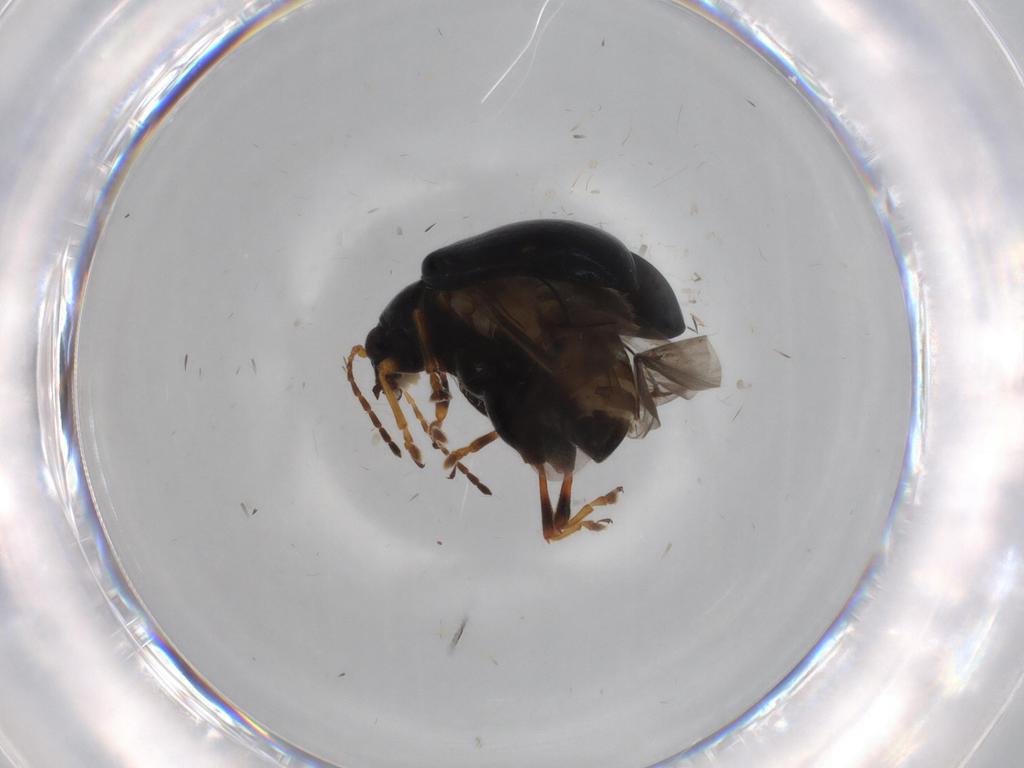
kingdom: Animalia
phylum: Arthropoda
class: Insecta
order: Coleoptera
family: Chrysomelidae
